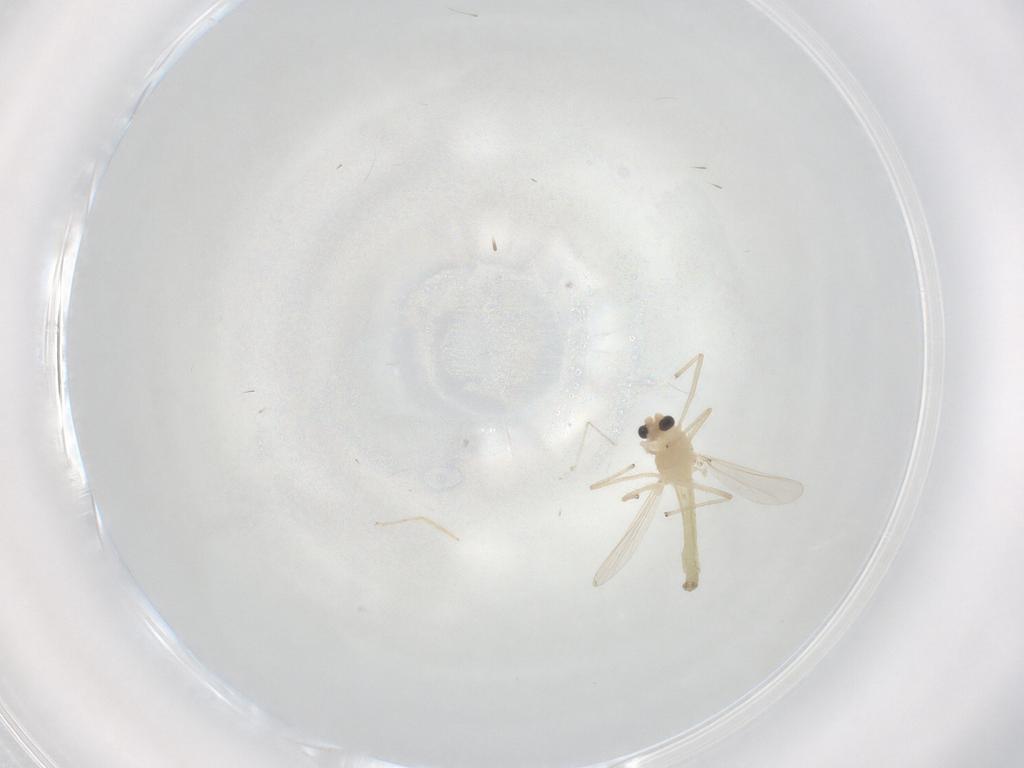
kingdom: Animalia
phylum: Arthropoda
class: Insecta
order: Diptera
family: Chironomidae
